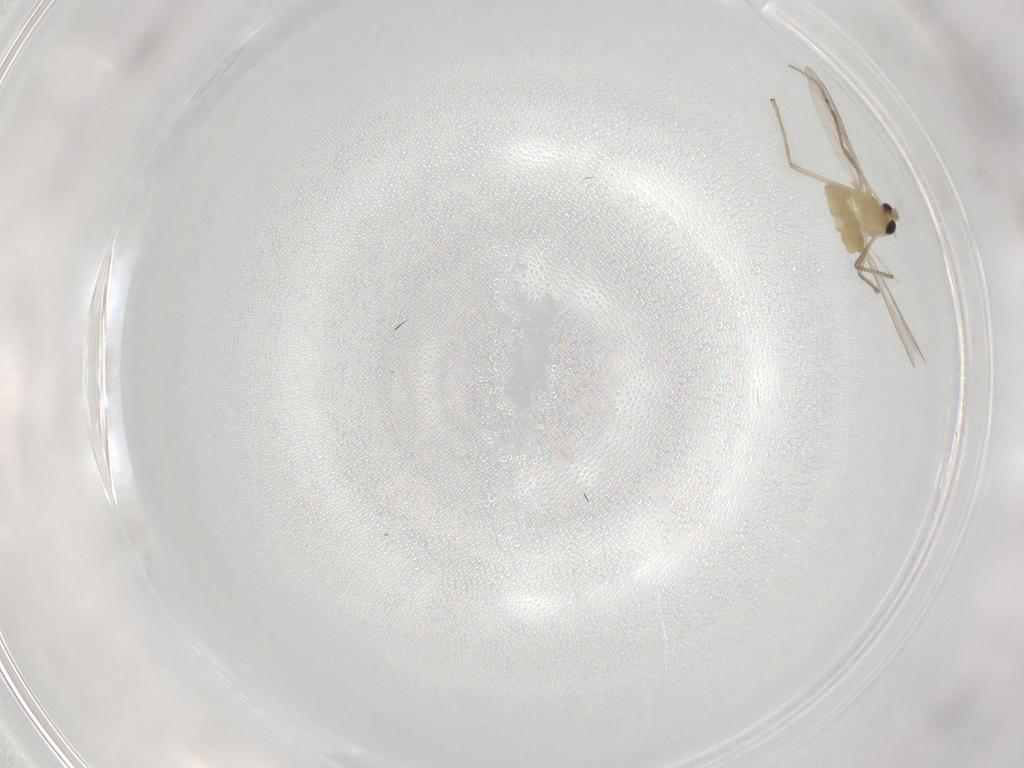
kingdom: Animalia
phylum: Arthropoda
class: Insecta
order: Diptera
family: Chironomidae
